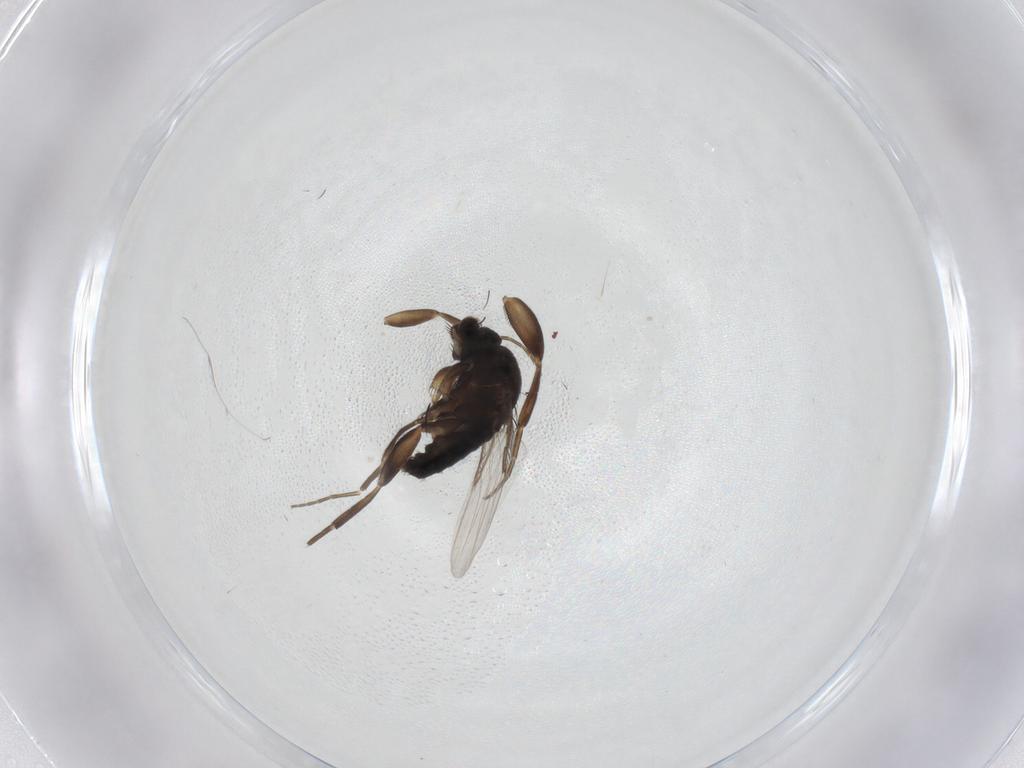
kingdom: Animalia
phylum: Arthropoda
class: Insecta
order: Diptera
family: Phoridae
